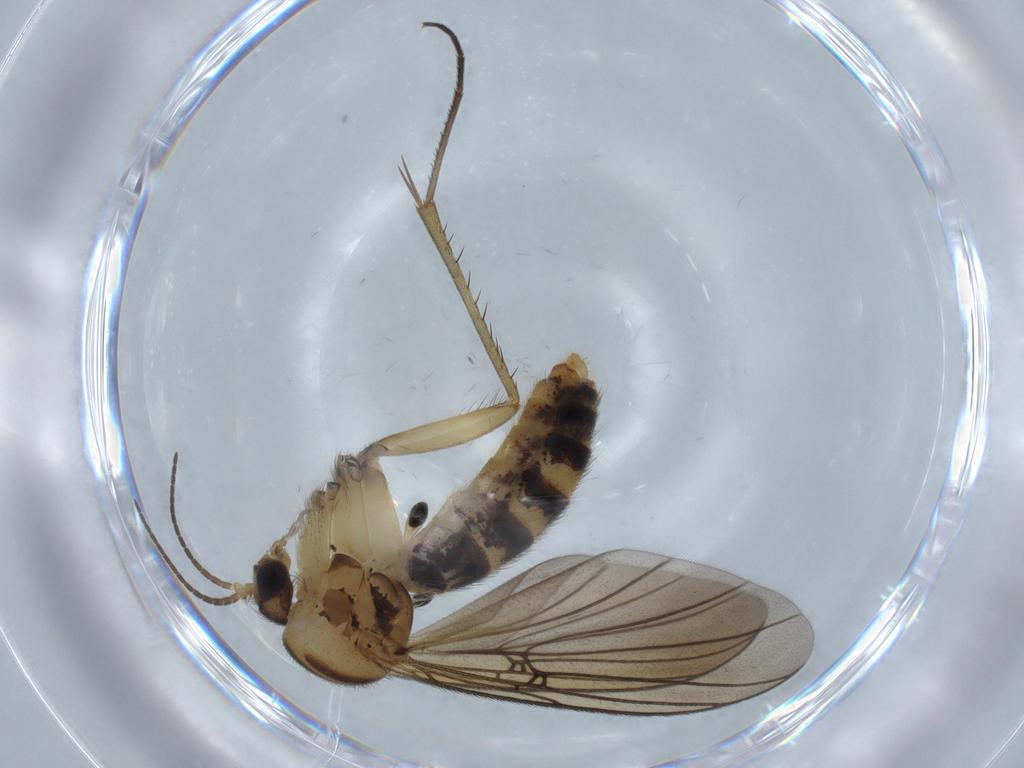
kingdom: Animalia
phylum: Arthropoda
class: Insecta
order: Diptera
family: Mycetophilidae
